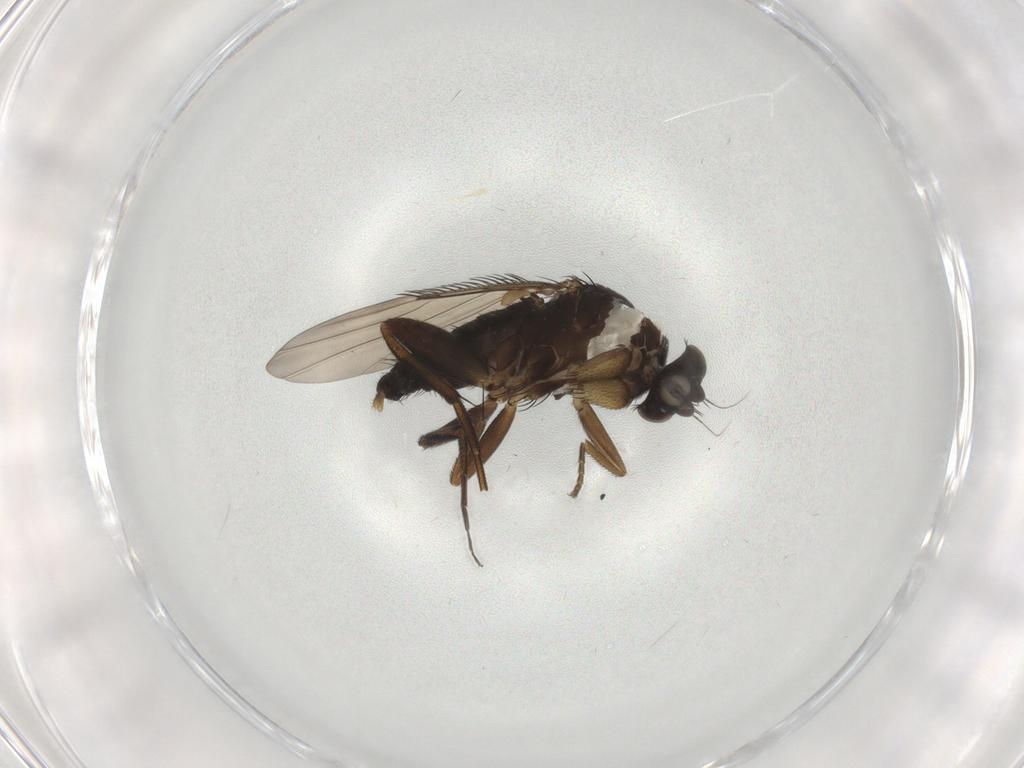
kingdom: Animalia
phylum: Arthropoda
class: Insecta
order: Diptera
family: Phoridae
